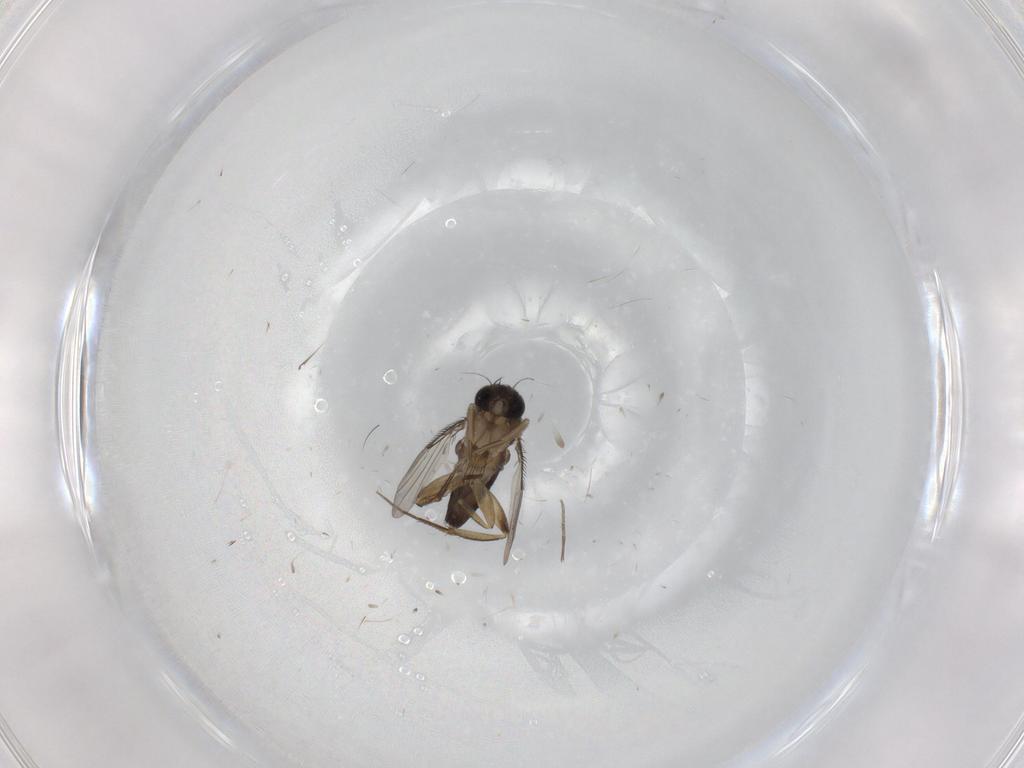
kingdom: Animalia
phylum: Arthropoda
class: Insecta
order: Diptera
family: Phoridae
